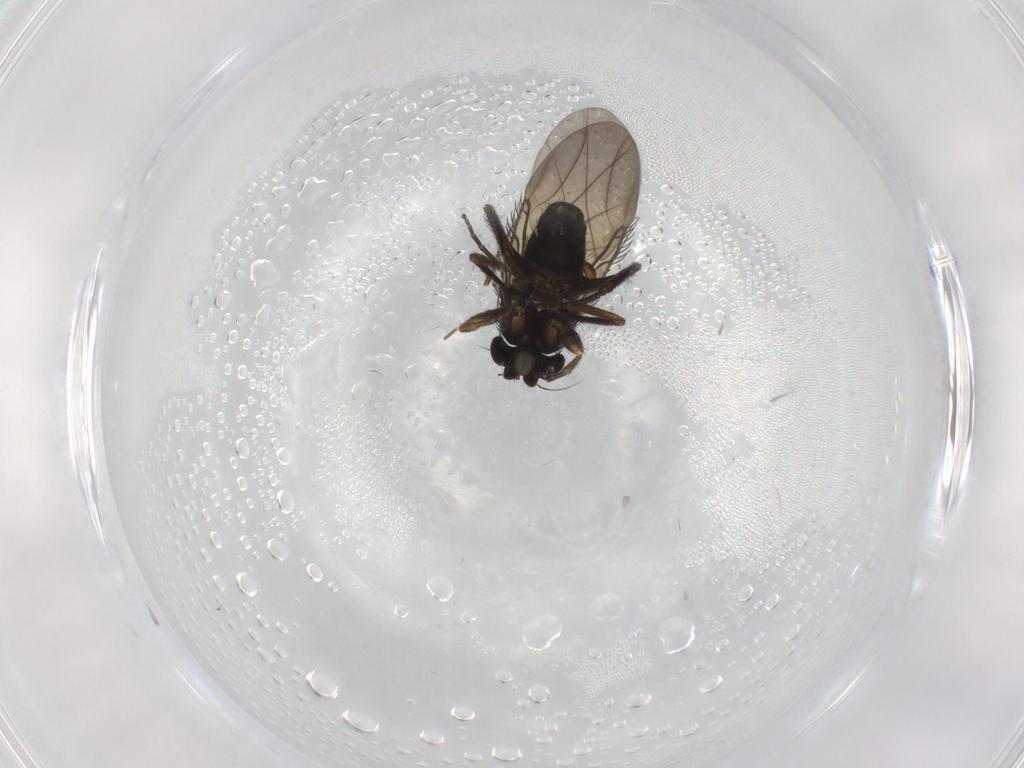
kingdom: Animalia
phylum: Arthropoda
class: Insecta
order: Diptera
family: Phoridae
